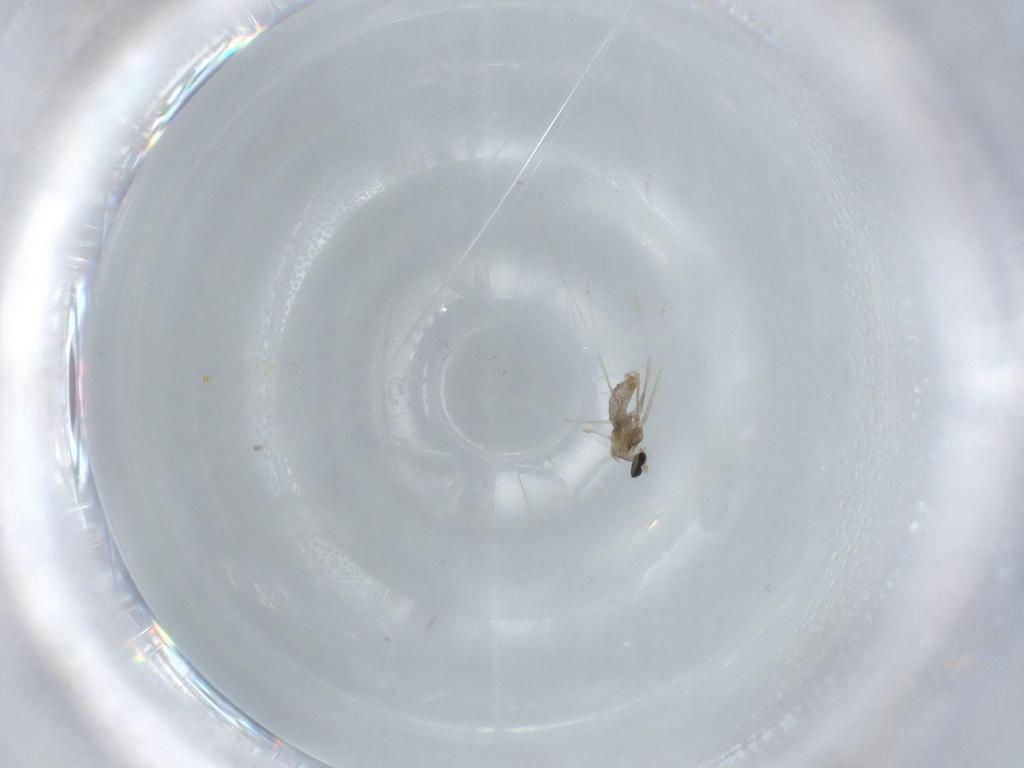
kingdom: Animalia
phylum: Arthropoda
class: Insecta
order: Diptera
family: Cecidomyiidae
